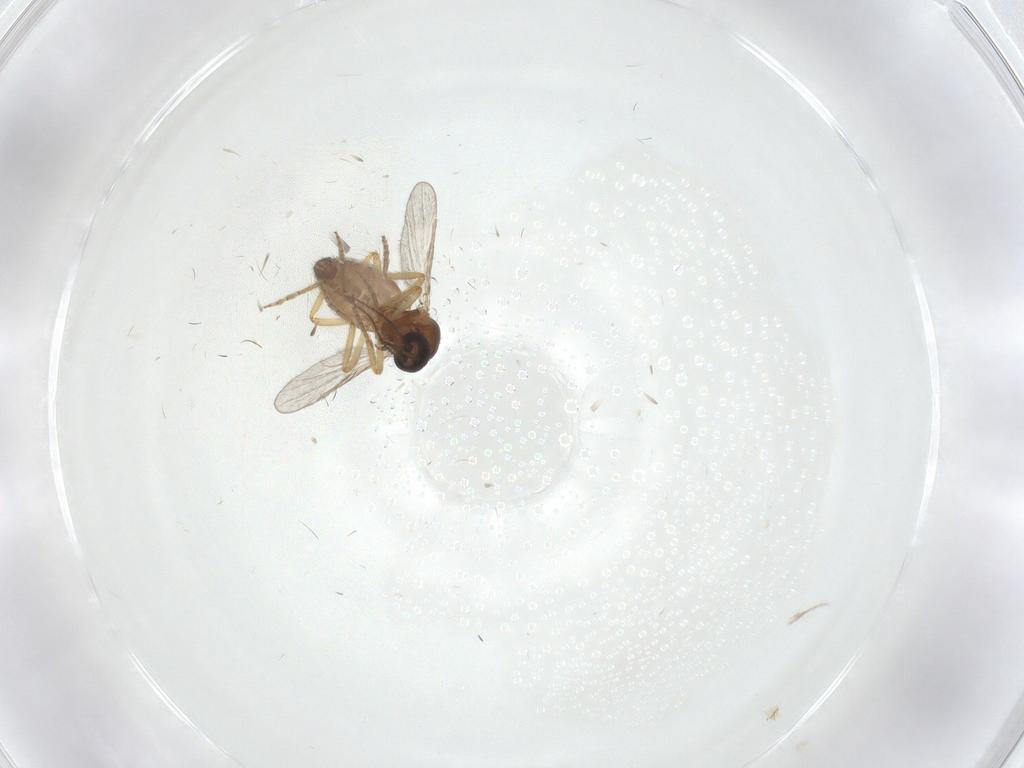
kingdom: Animalia
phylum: Arthropoda
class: Insecta
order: Diptera
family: Ceratopogonidae
